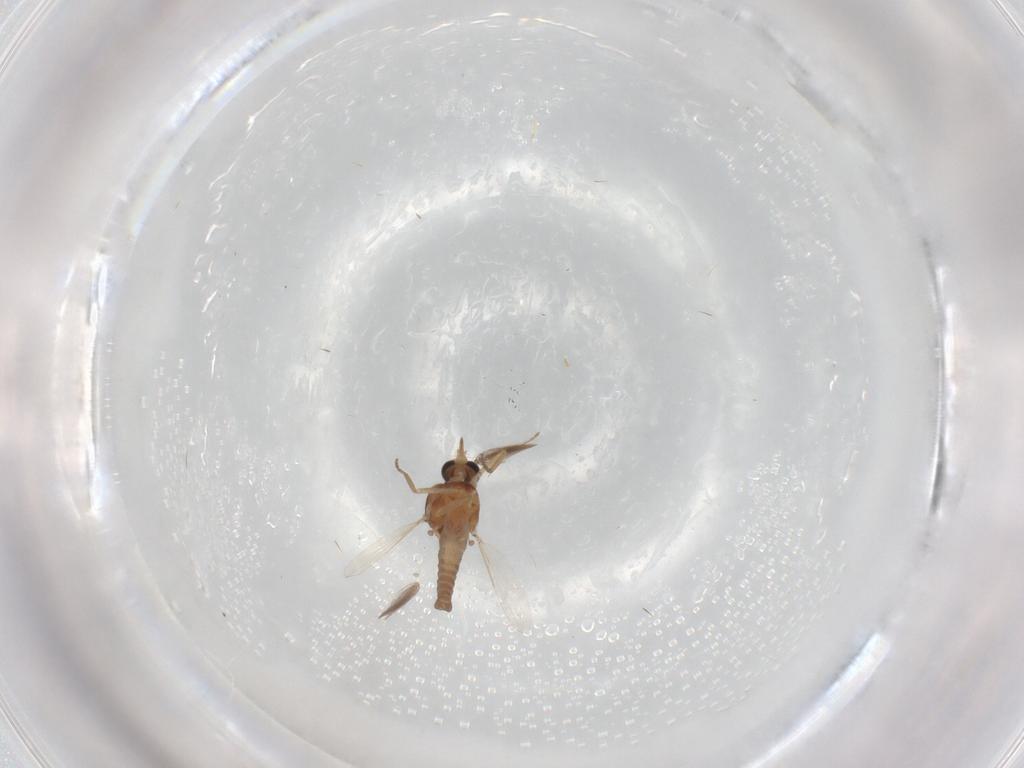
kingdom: Animalia
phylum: Arthropoda
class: Insecta
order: Diptera
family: Ceratopogonidae
